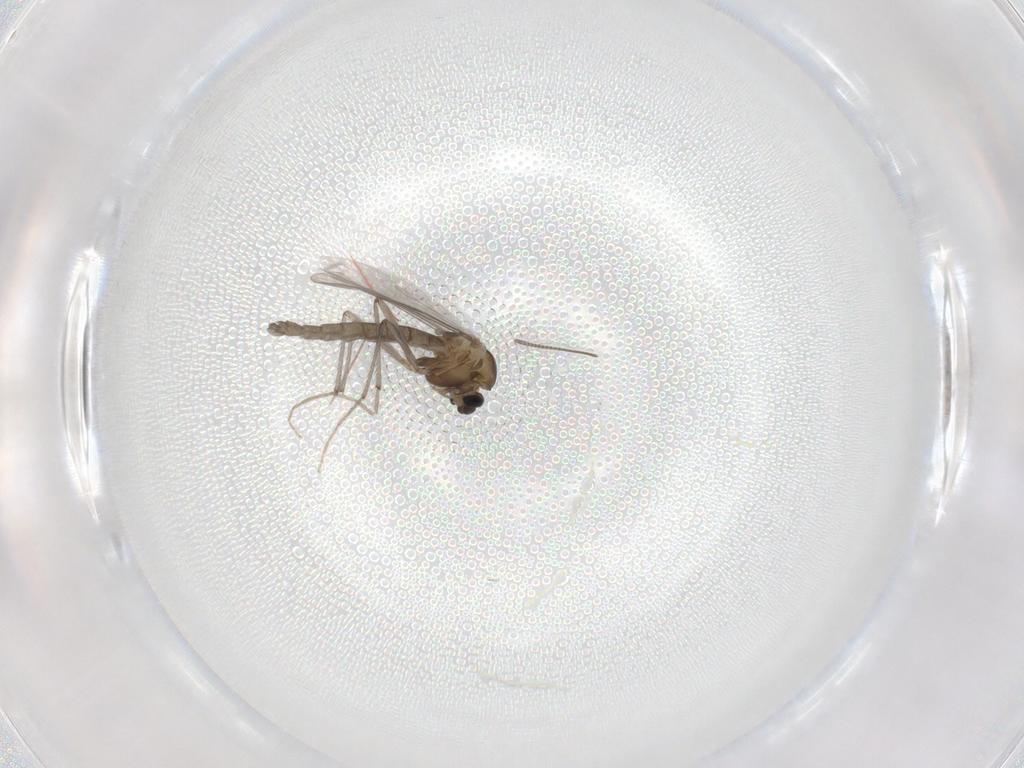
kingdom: Animalia
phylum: Arthropoda
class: Insecta
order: Diptera
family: Chironomidae
